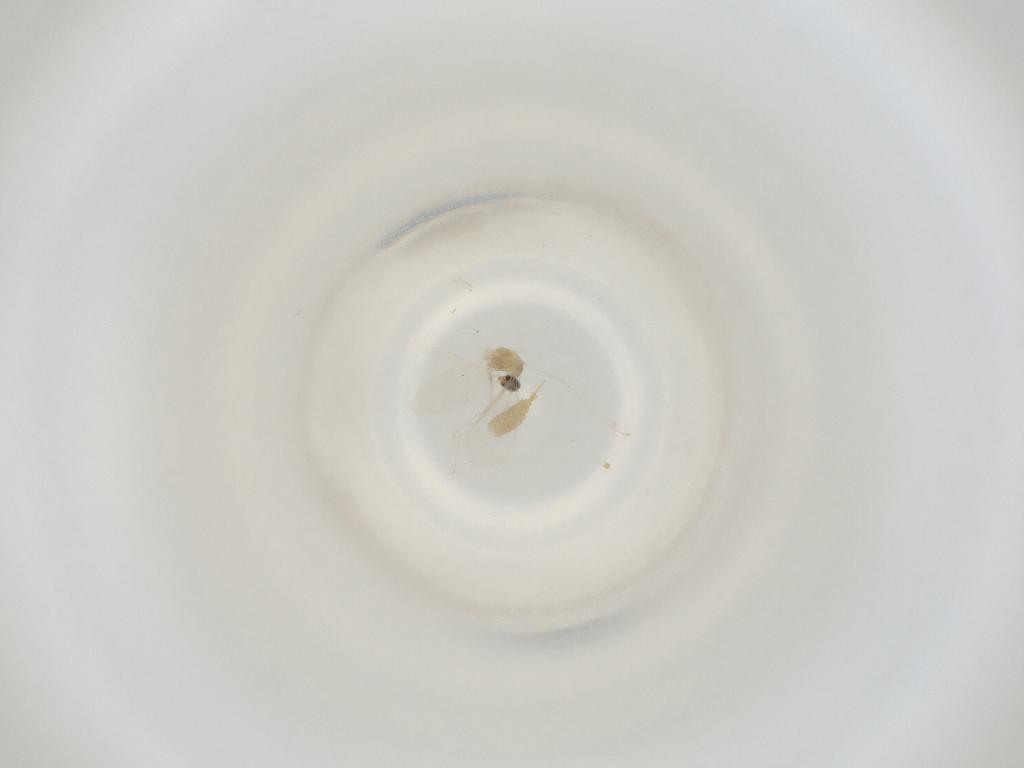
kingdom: Animalia
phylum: Arthropoda
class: Insecta
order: Diptera
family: Cecidomyiidae
